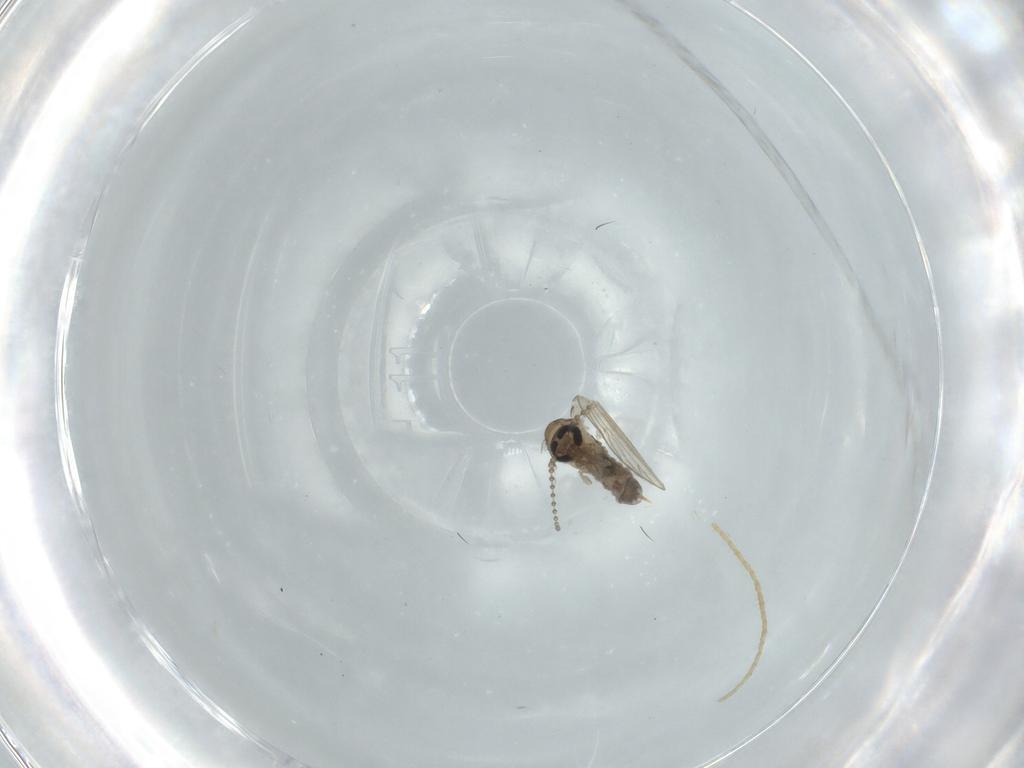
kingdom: Animalia
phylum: Arthropoda
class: Insecta
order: Diptera
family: Psychodidae
